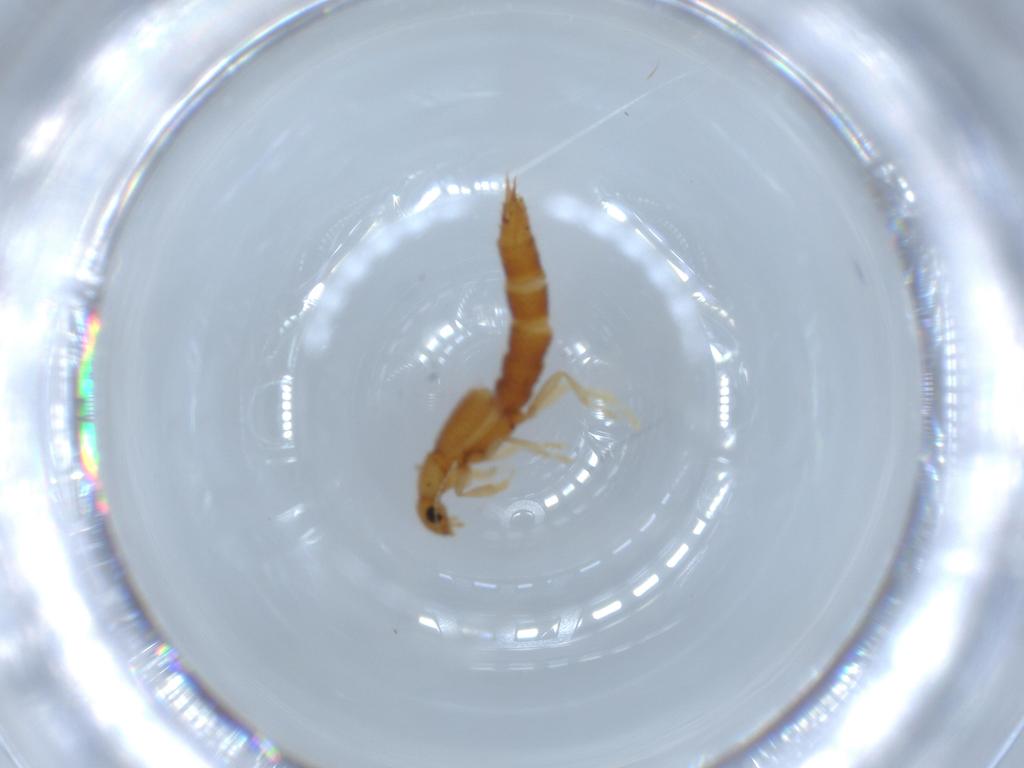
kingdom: Animalia
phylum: Arthropoda
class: Insecta
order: Coleoptera
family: Staphylinidae
